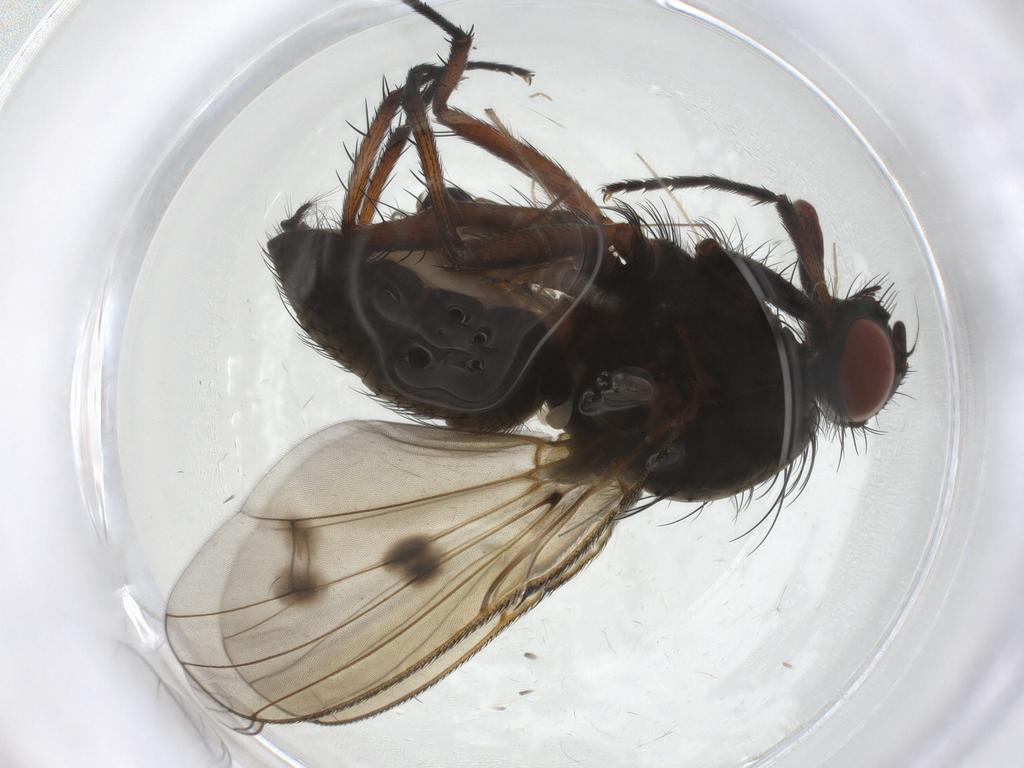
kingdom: Animalia
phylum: Arthropoda
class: Insecta
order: Diptera
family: Anthomyiidae
